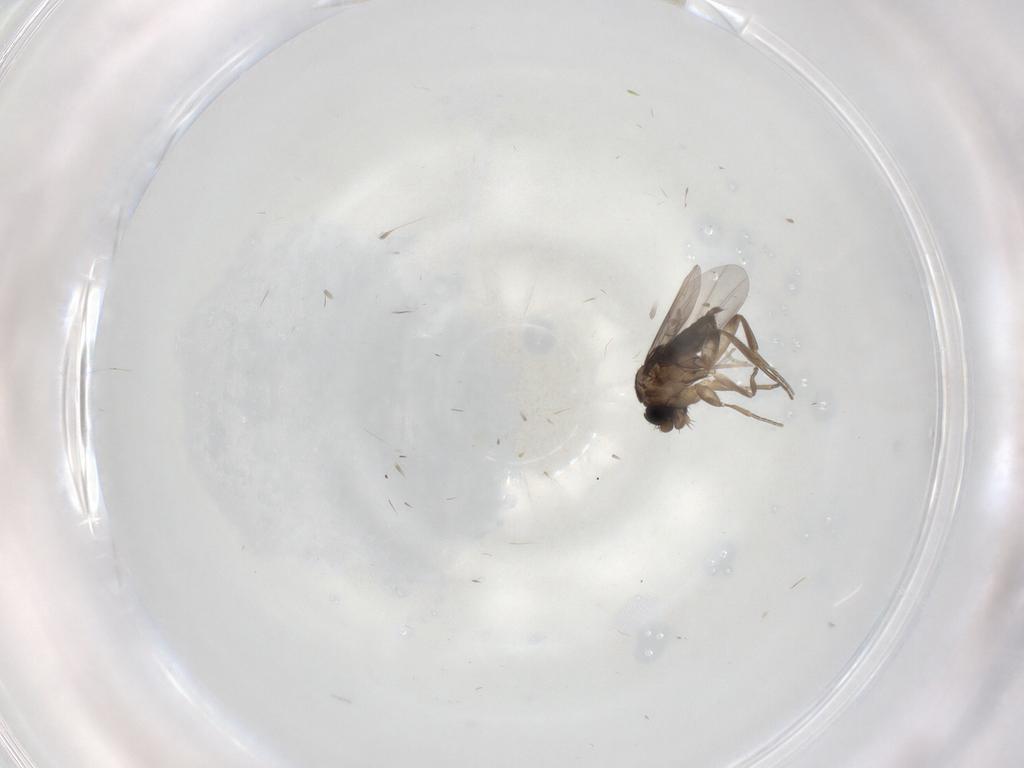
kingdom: Animalia
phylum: Arthropoda
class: Insecta
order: Diptera
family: Phoridae
